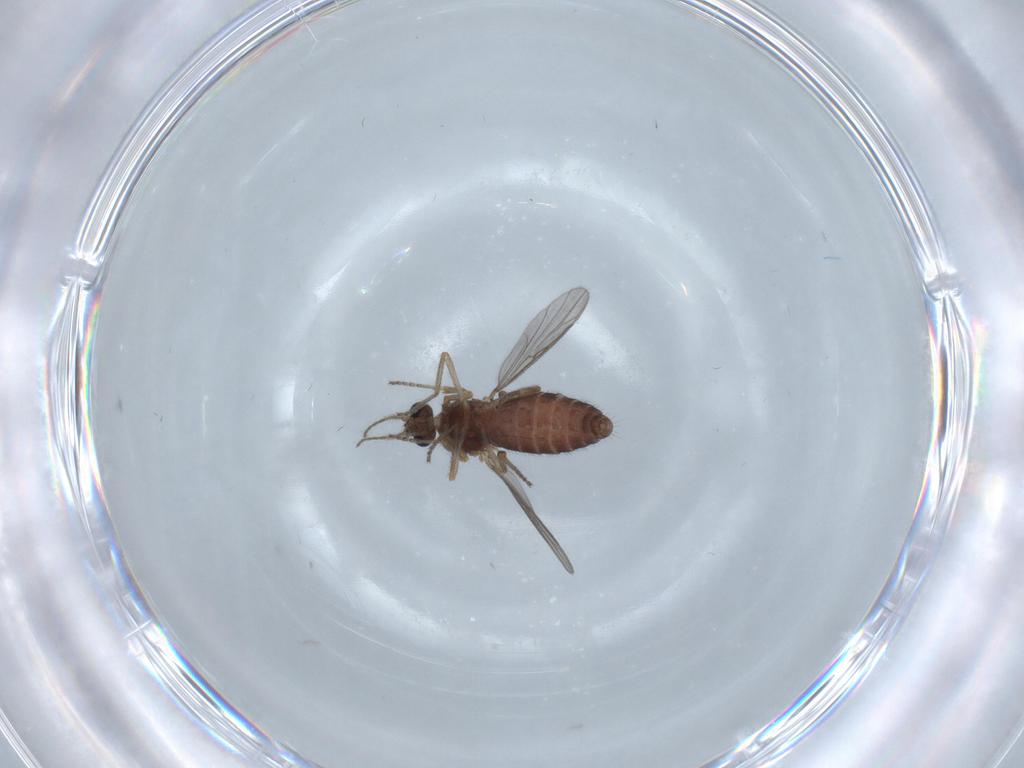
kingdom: Animalia
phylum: Arthropoda
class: Insecta
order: Diptera
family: Ceratopogonidae
